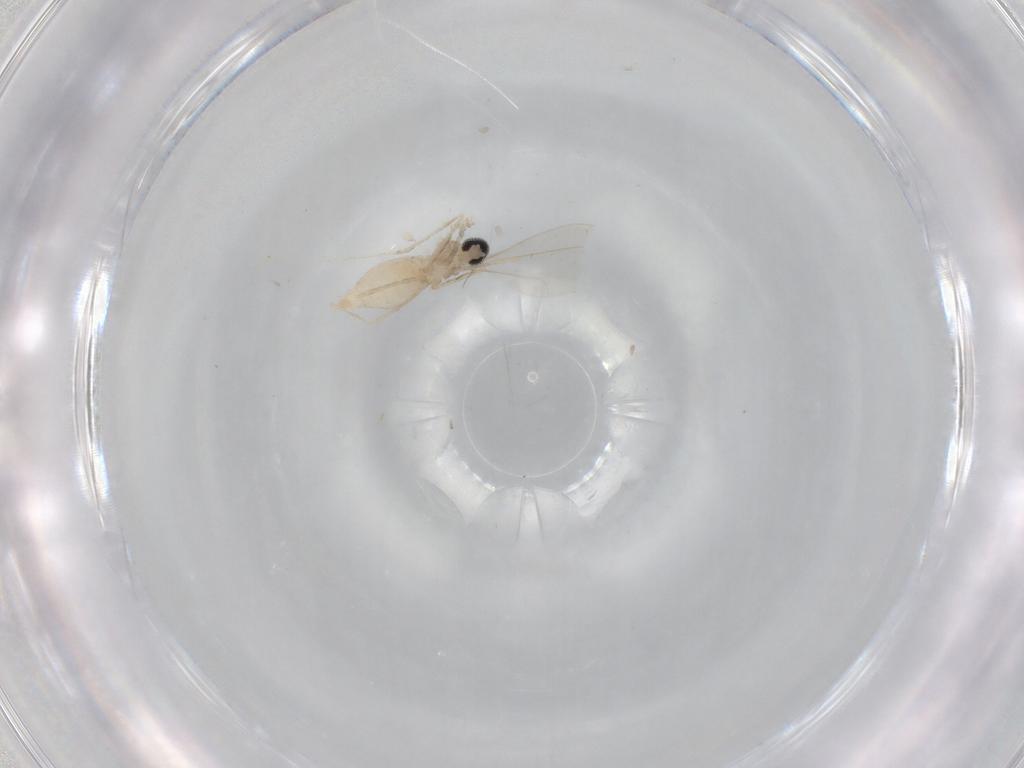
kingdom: Animalia
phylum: Arthropoda
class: Insecta
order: Diptera
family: Cecidomyiidae
